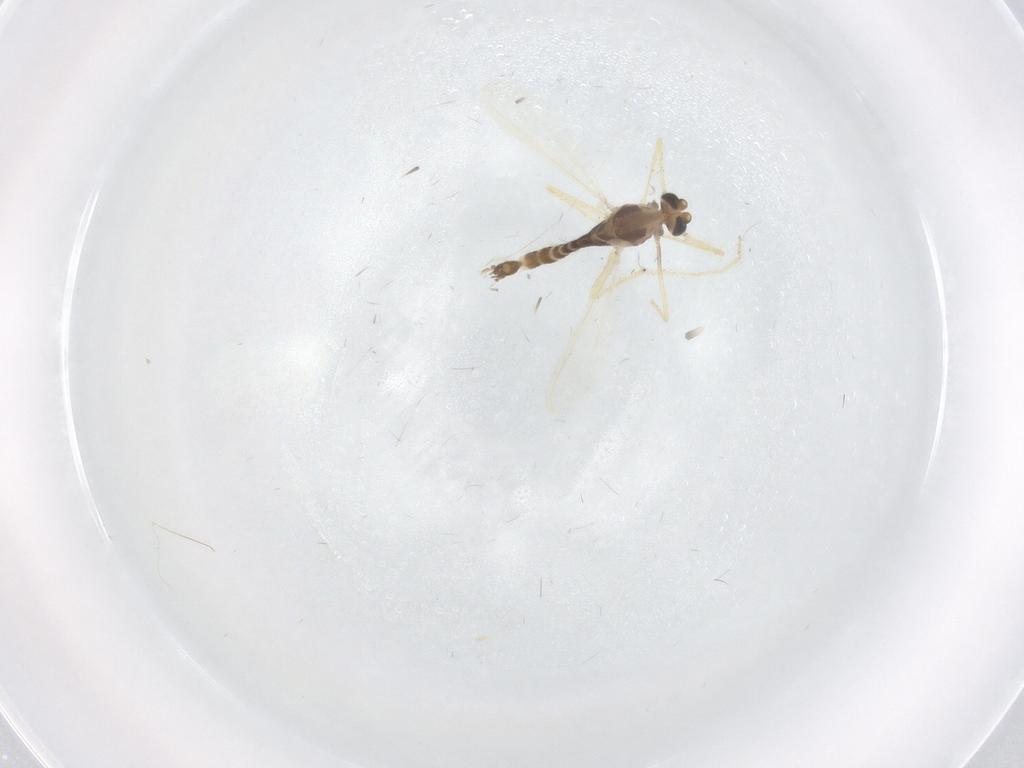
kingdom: Animalia
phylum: Arthropoda
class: Insecta
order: Diptera
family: Chironomidae
